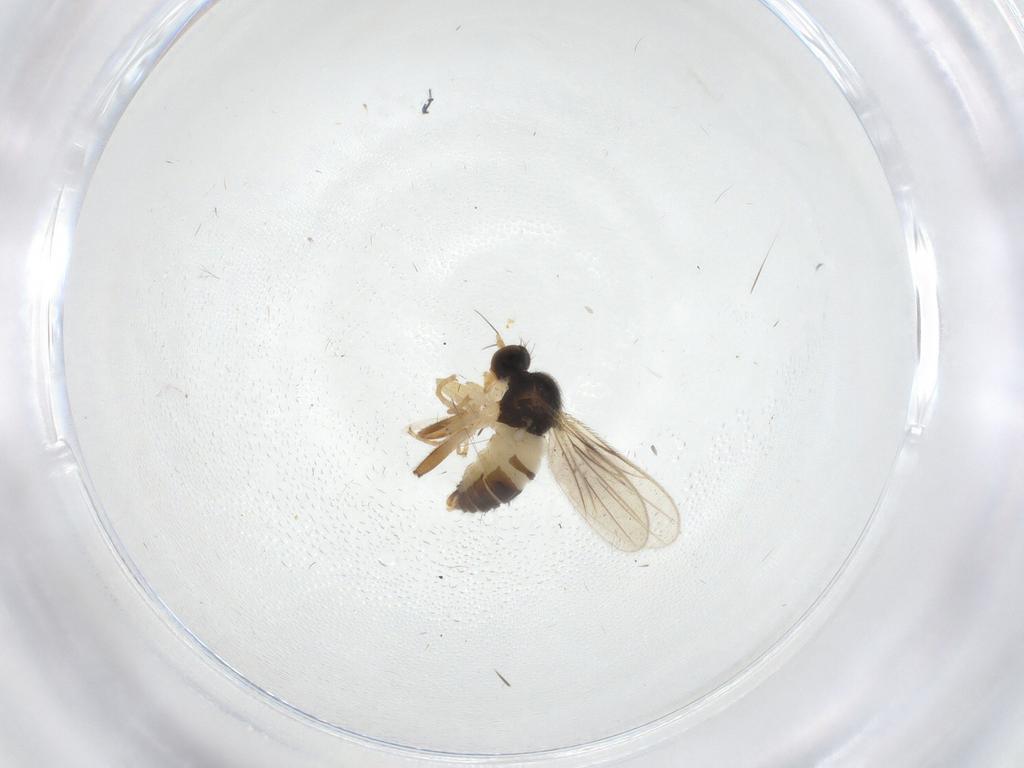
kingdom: Animalia
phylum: Arthropoda
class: Insecta
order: Diptera
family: Hybotidae
